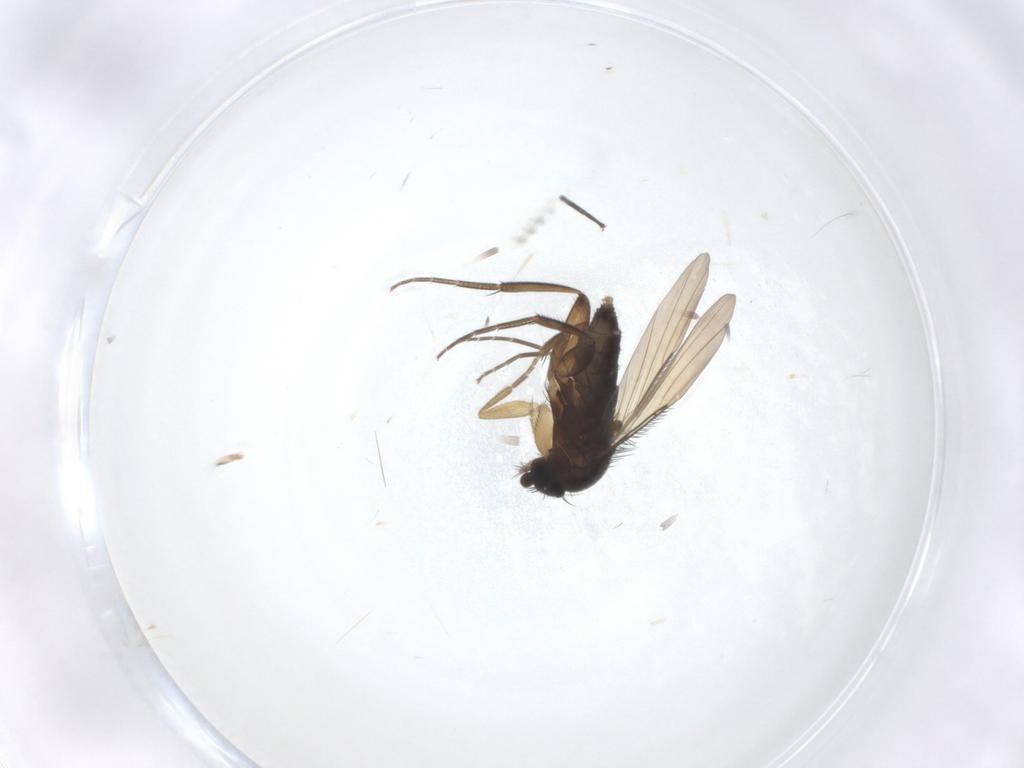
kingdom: Animalia
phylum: Arthropoda
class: Insecta
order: Diptera
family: Phoridae
